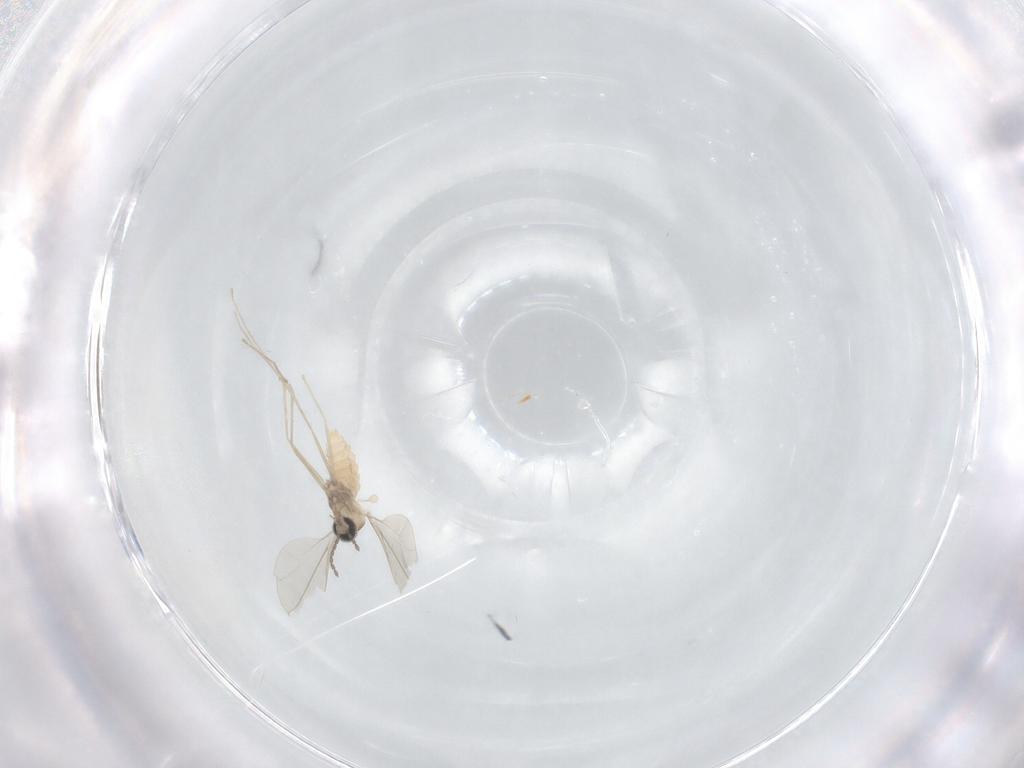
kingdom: Animalia
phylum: Arthropoda
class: Insecta
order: Diptera
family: Cecidomyiidae
